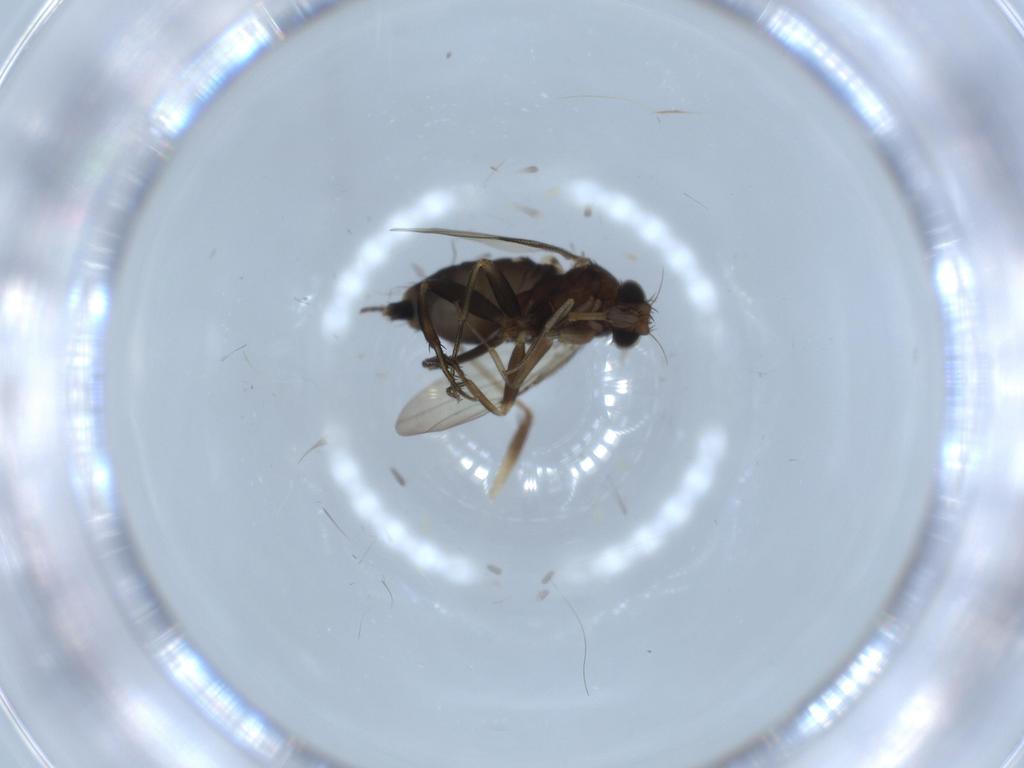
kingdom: Animalia
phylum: Arthropoda
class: Insecta
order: Diptera
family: Phoridae
